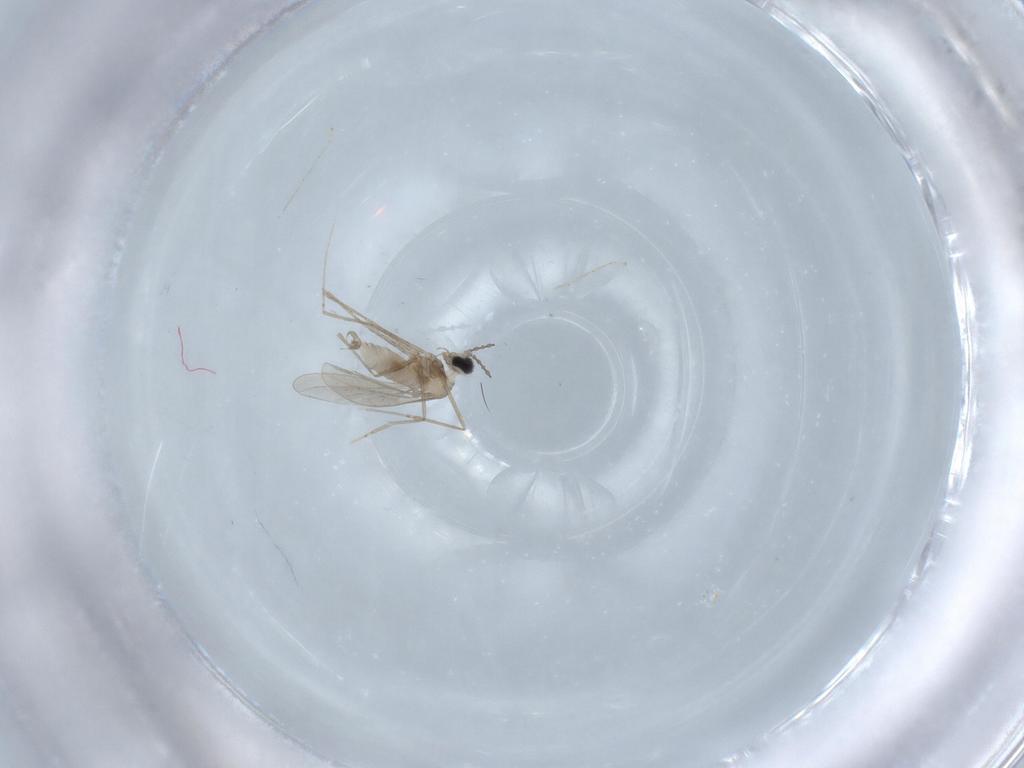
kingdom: Animalia
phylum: Arthropoda
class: Insecta
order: Diptera
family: Cecidomyiidae
